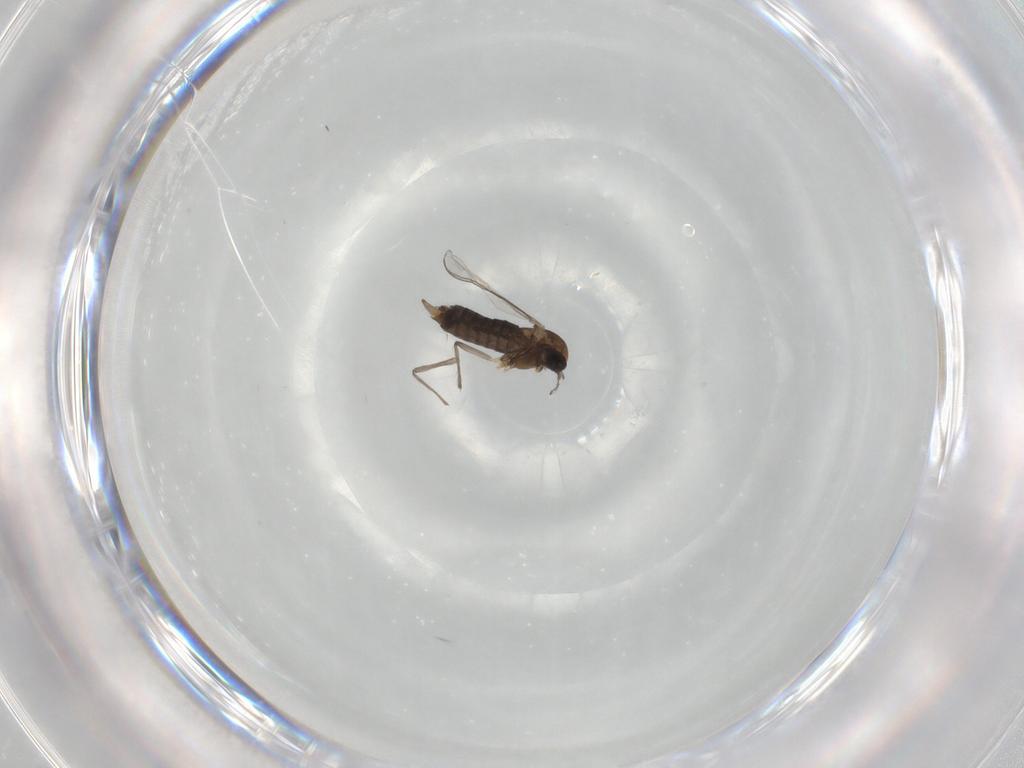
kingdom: Animalia
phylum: Arthropoda
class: Insecta
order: Diptera
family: Chironomidae
